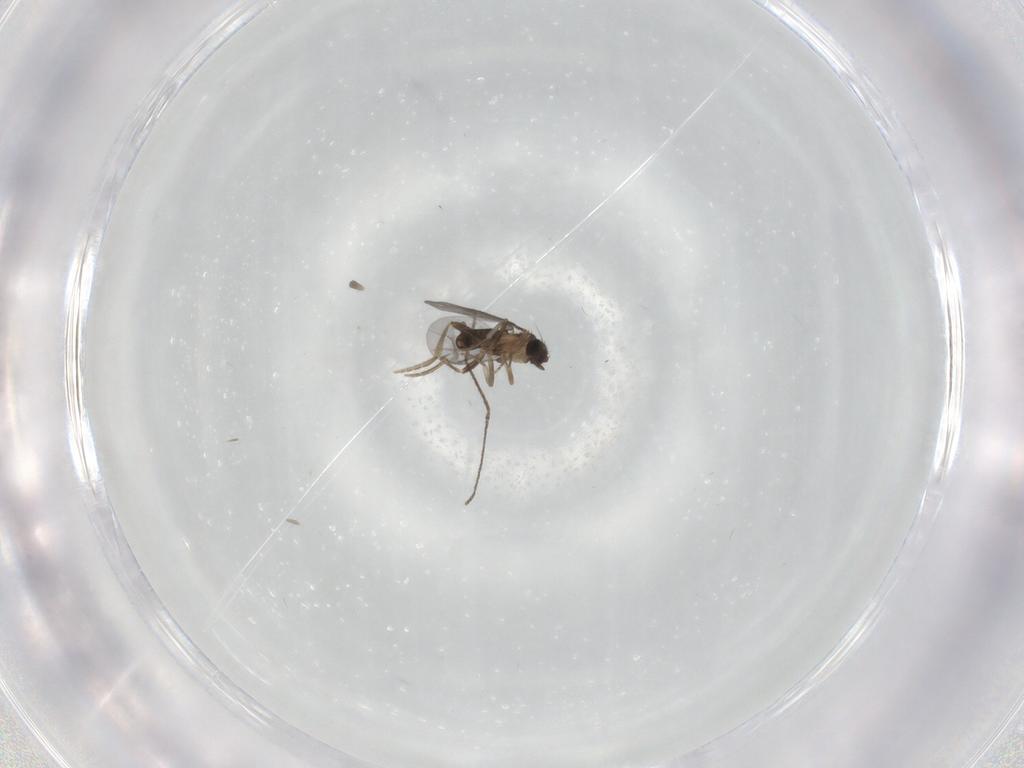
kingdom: Animalia
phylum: Arthropoda
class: Insecta
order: Diptera
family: Phoridae
